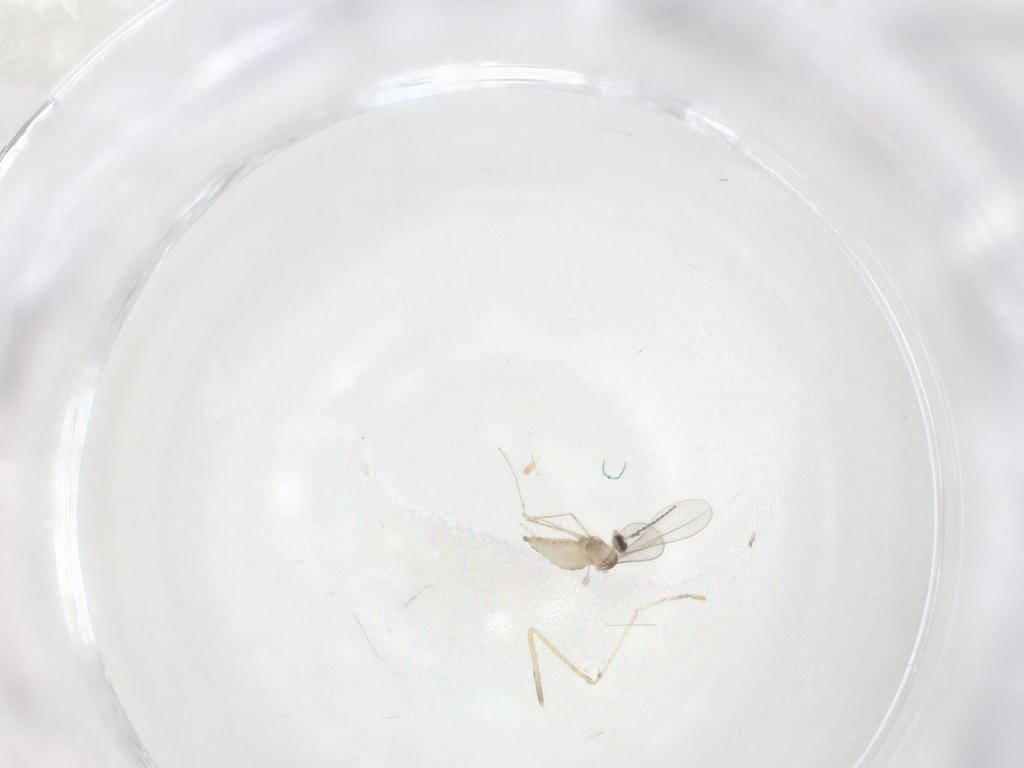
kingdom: Animalia
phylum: Arthropoda
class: Insecta
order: Diptera
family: Cecidomyiidae
